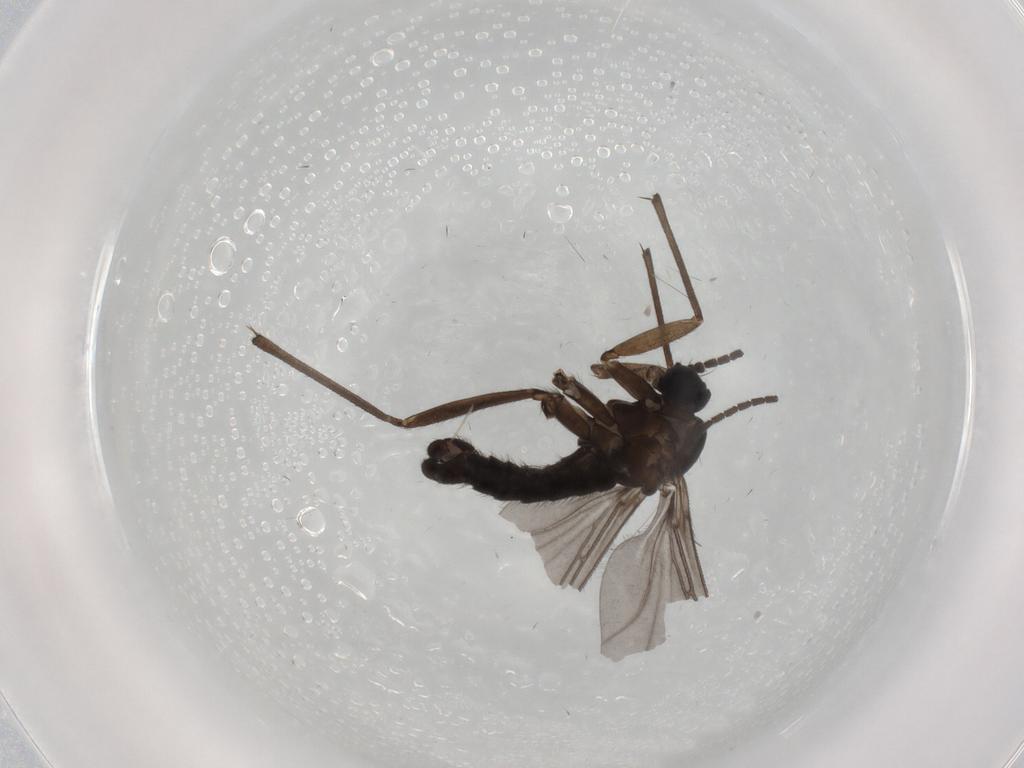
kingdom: Animalia
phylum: Arthropoda
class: Insecta
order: Diptera
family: Sciaridae
